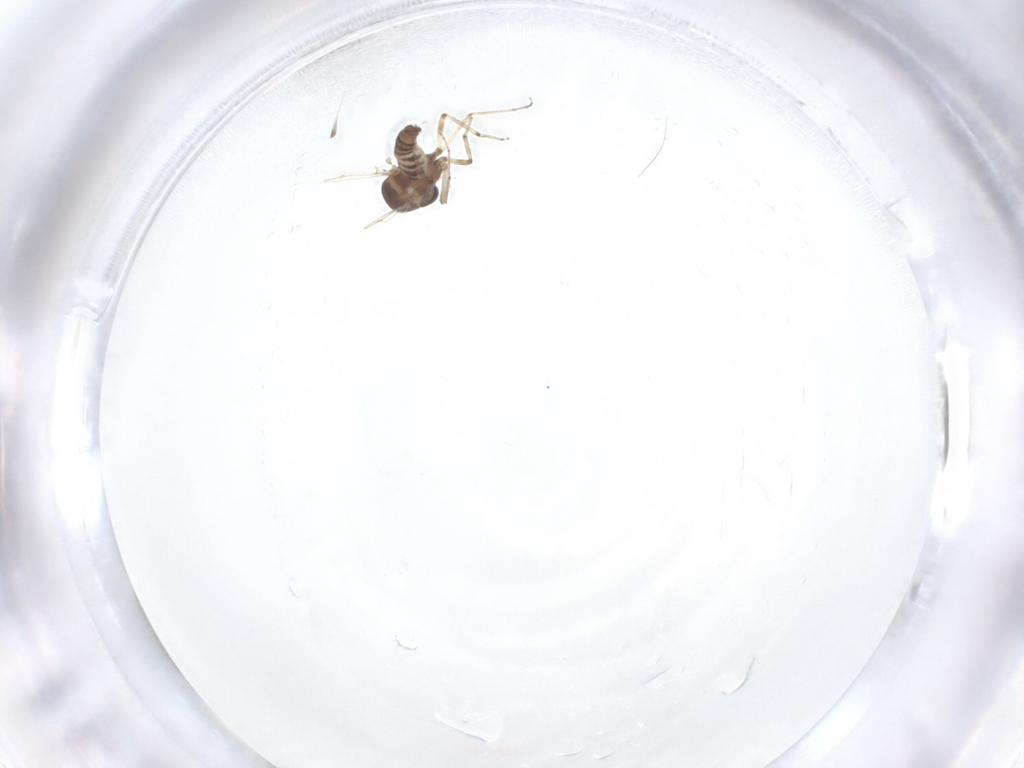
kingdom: Animalia
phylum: Arthropoda
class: Insecta
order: Diptera
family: Ceratopogonidae
